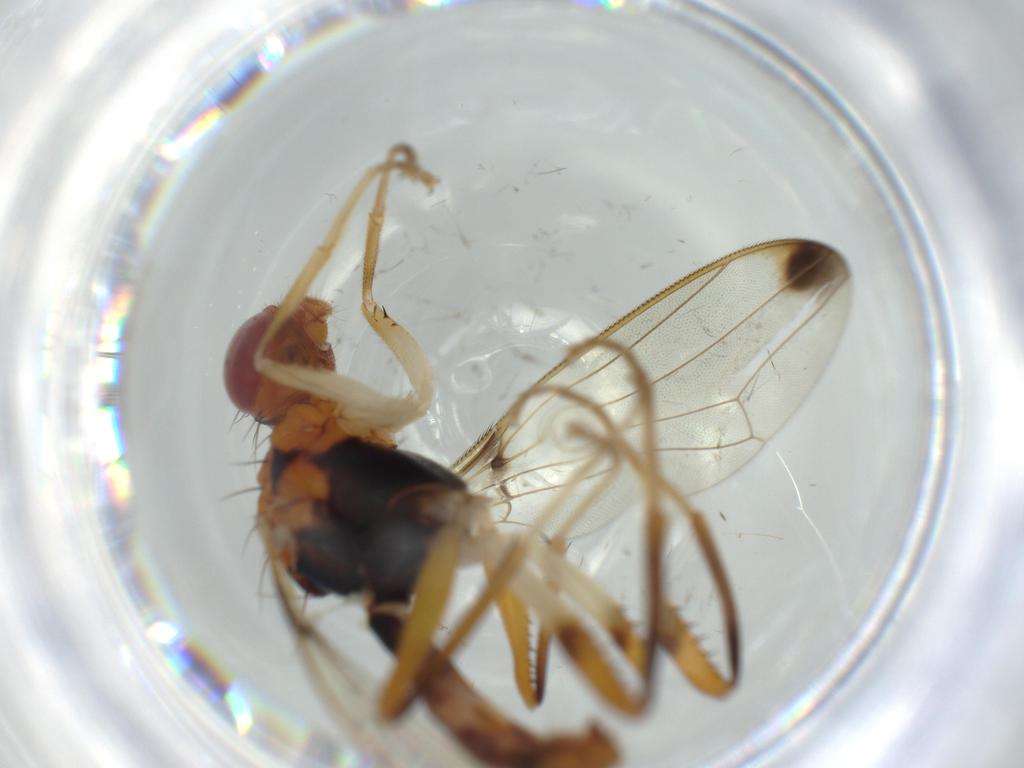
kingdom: Animalia
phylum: Arthropoda
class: Insecta
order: Diptera
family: Richardiidae
